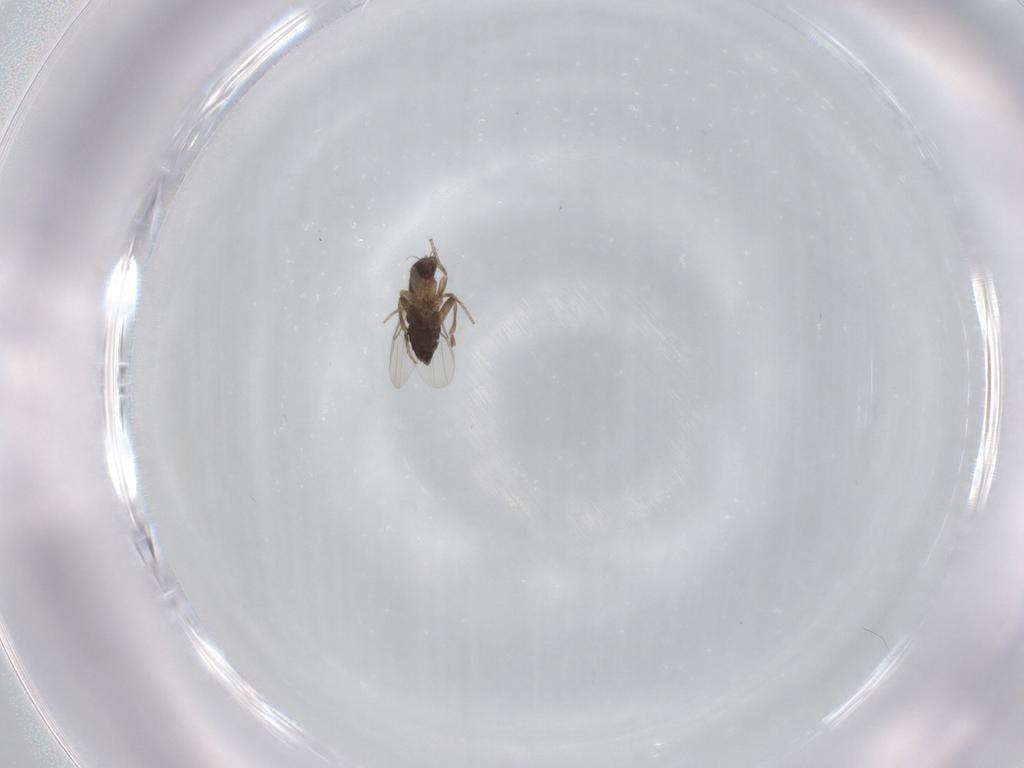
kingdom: Animalia
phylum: Arthropoda
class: Insecta
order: Diptera
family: Phoridae
